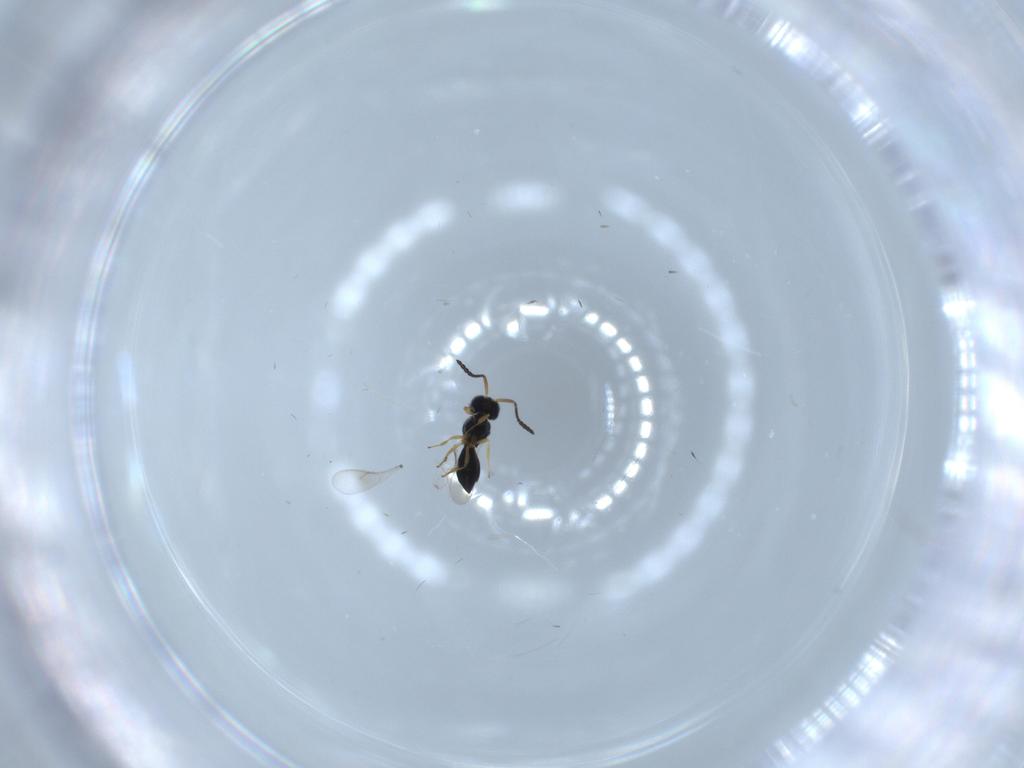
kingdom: Animalia
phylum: Arthropoda
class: Insecta
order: Hymenoptera
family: Scelionidae
